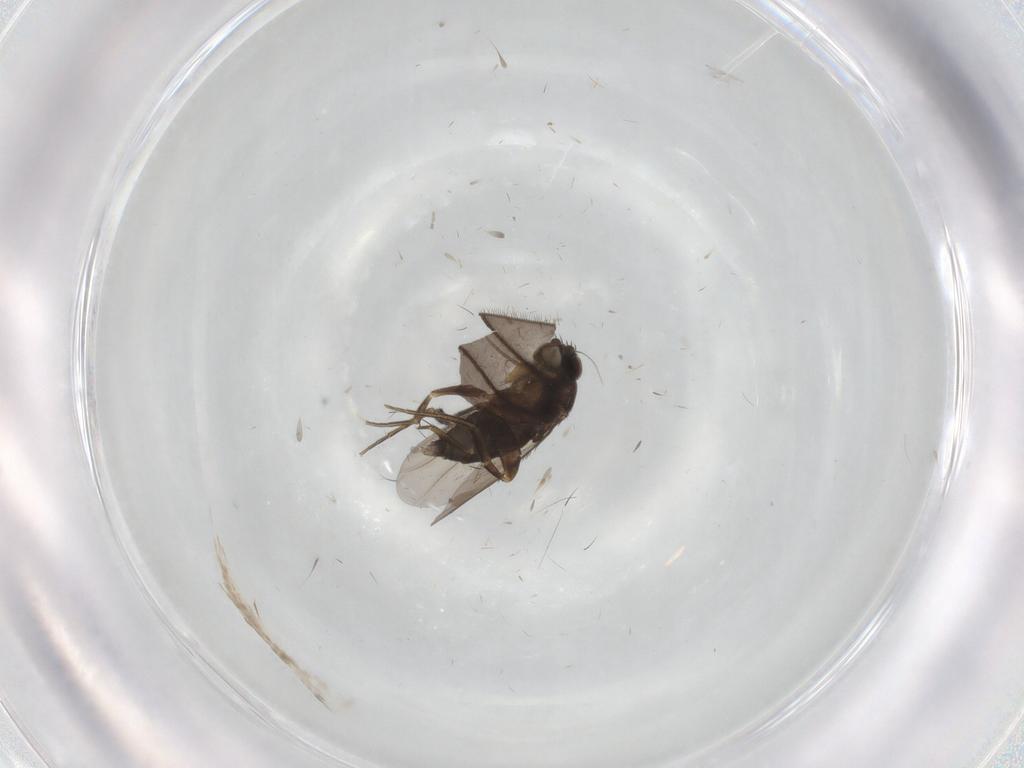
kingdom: Animalia
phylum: Arthropoda
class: Insecta
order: Diptera
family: Phoridae
